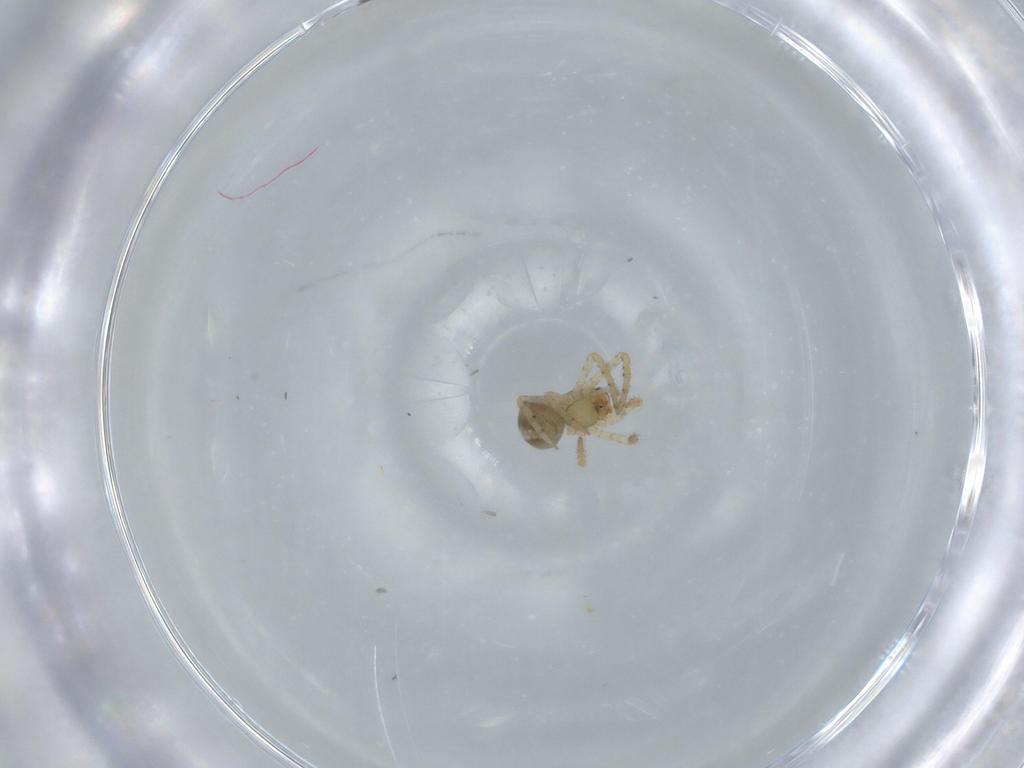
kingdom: Animalia
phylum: Arthropoda
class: Arachnida
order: Araneae
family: Theridiidae
